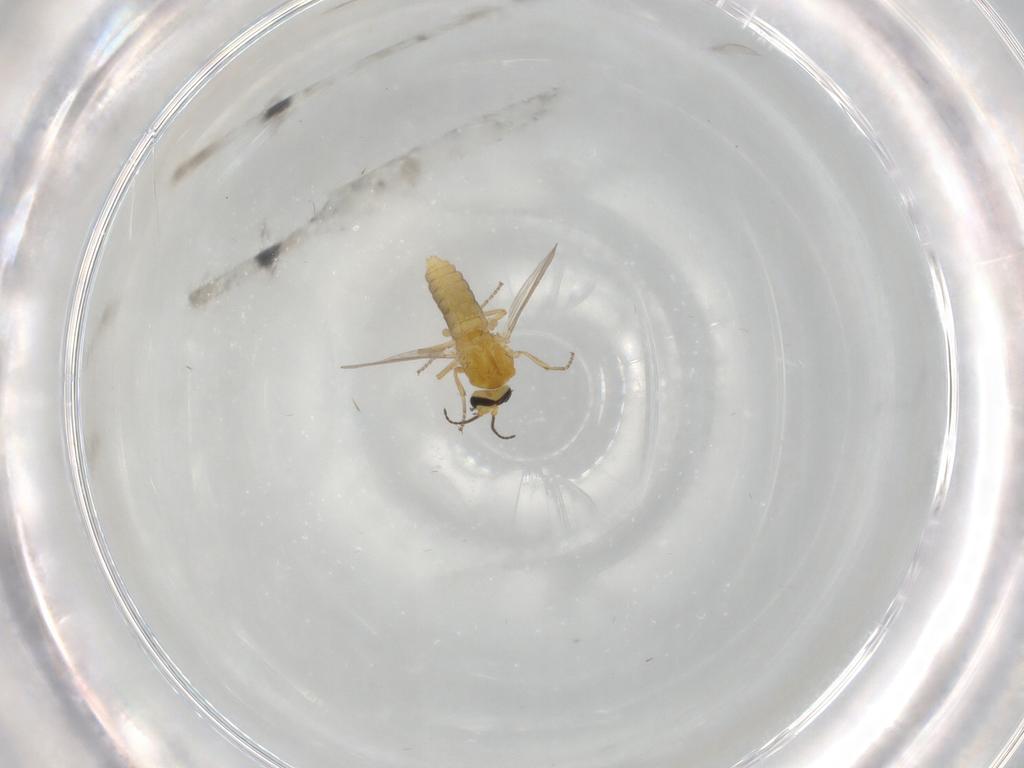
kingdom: Animalia
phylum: Arthropoda
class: Insecta
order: Diptera
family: Ceratopogonidae
